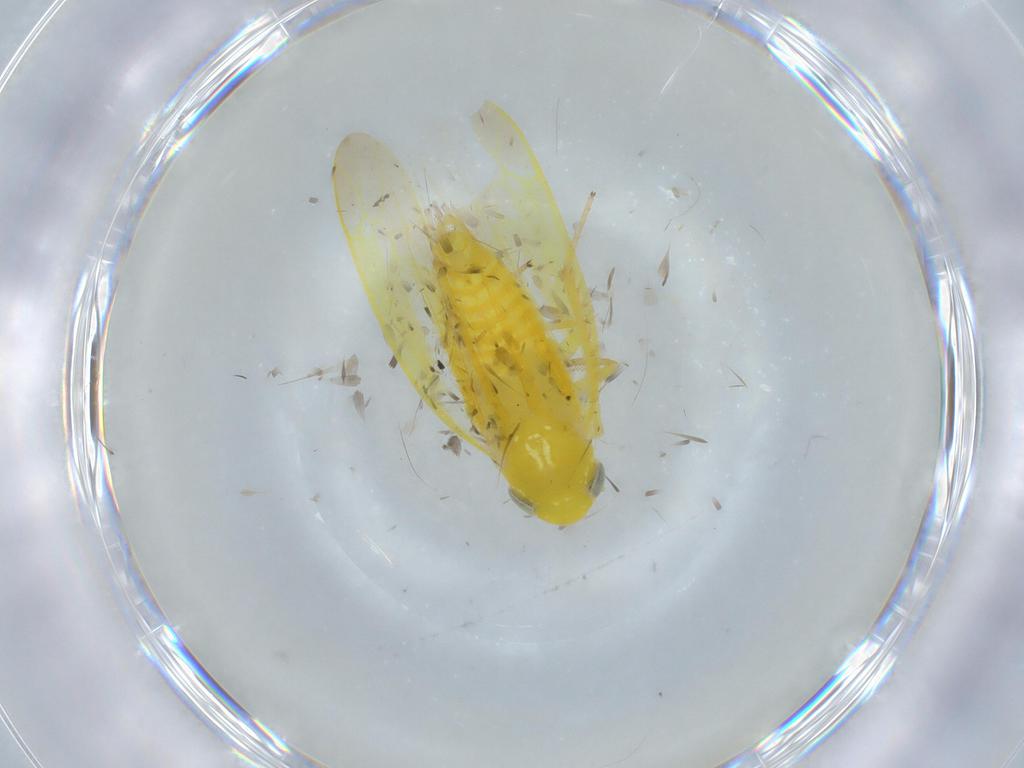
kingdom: Animalia
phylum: Arthropoda
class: Insecta
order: Hemiptera
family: Cicadellidae
